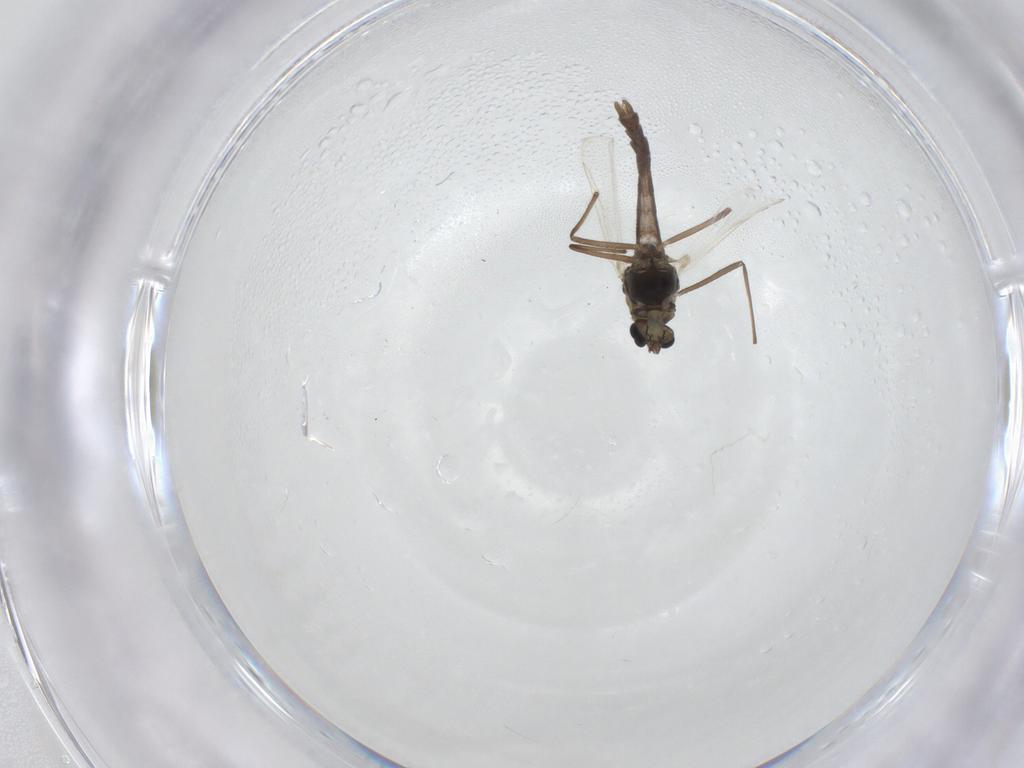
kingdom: Animalia
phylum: Arthropoda
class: Insecta
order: Diptera
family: Chironomidae
